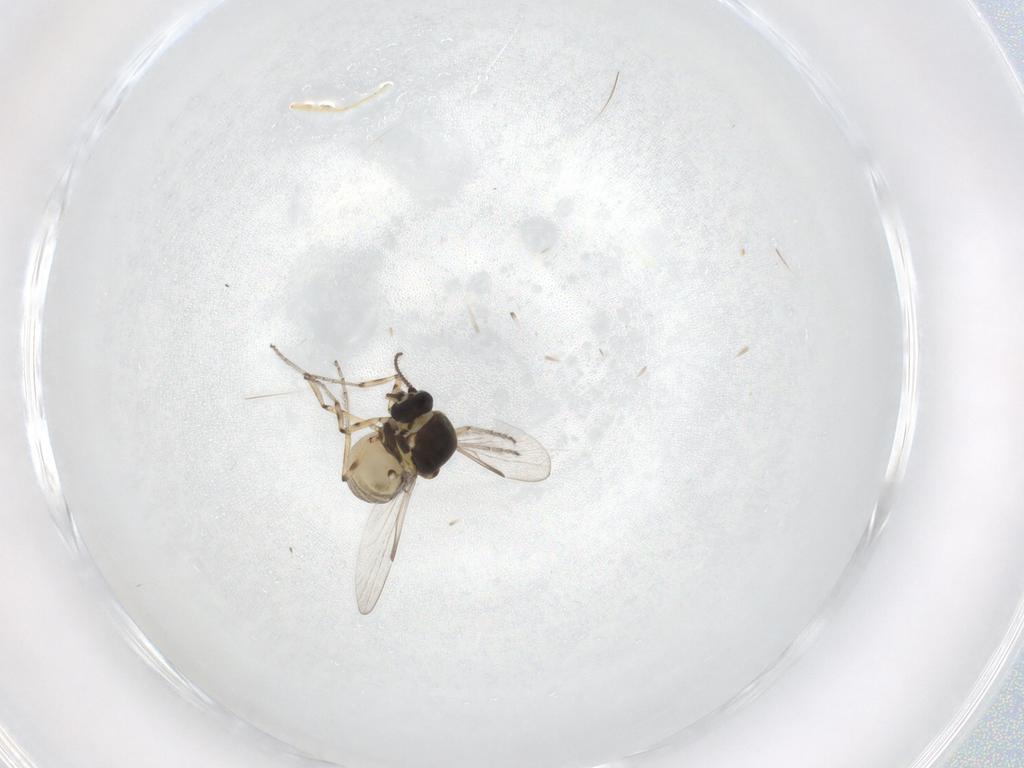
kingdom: Animalia
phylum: Arthropoda
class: Insecta
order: Diptera
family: Ceratopogonidae
